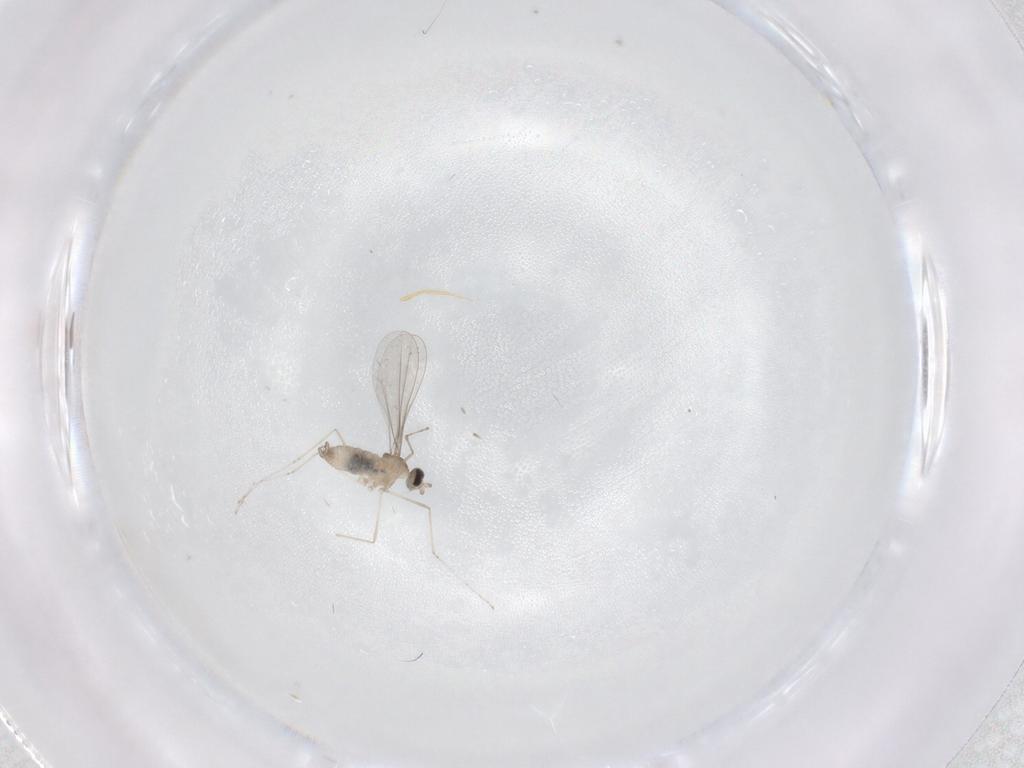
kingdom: Animalia
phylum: Arthropoda
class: Insecta
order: Diptera
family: Cecidomyiidae
